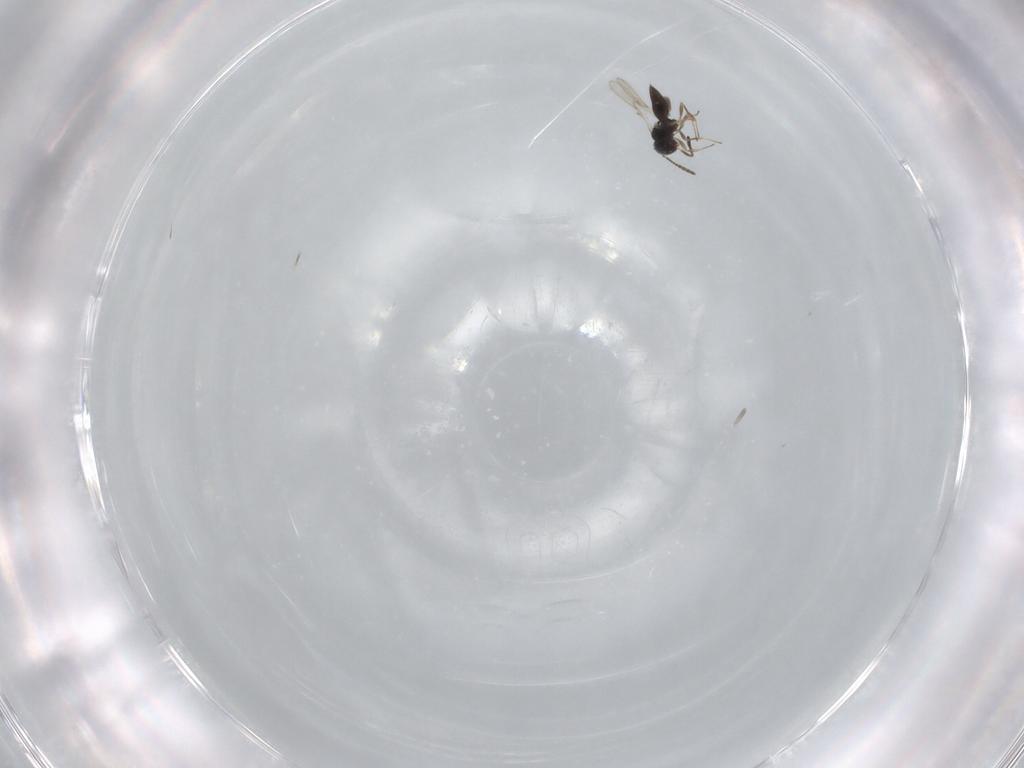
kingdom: Animalia
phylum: Arthropoda
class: Insecta
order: Hymenoptera
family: Scelionidae
